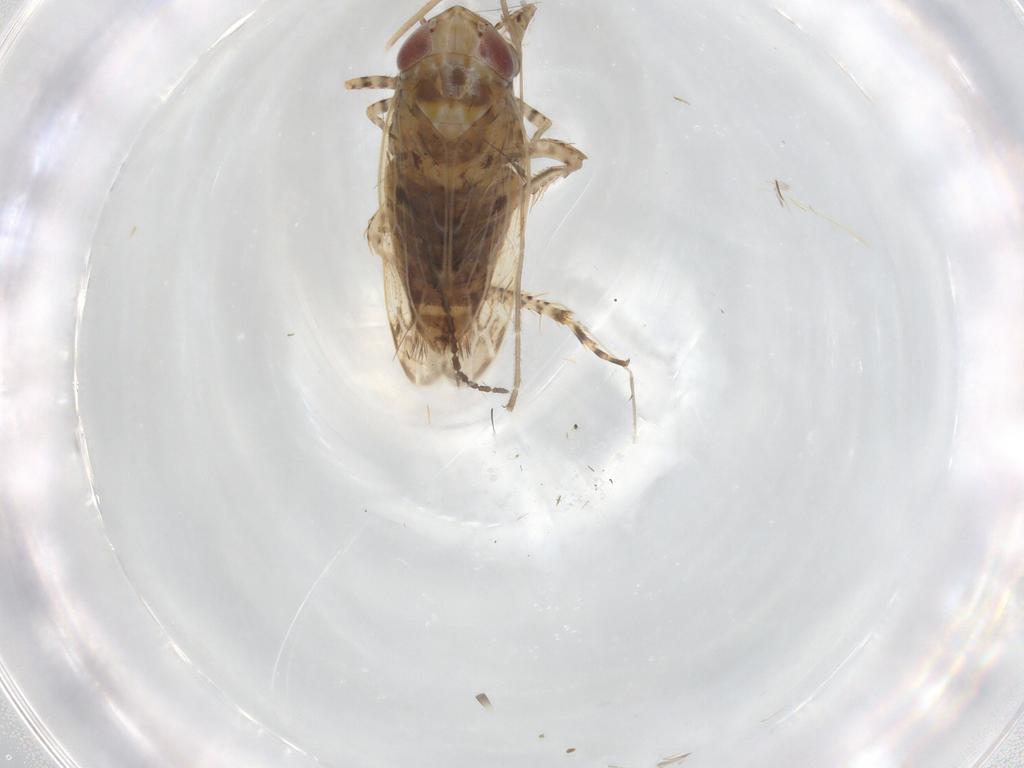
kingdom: Animalia
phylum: Arthropoda
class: Insecta
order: Hemiptera
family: Cicadellidae
